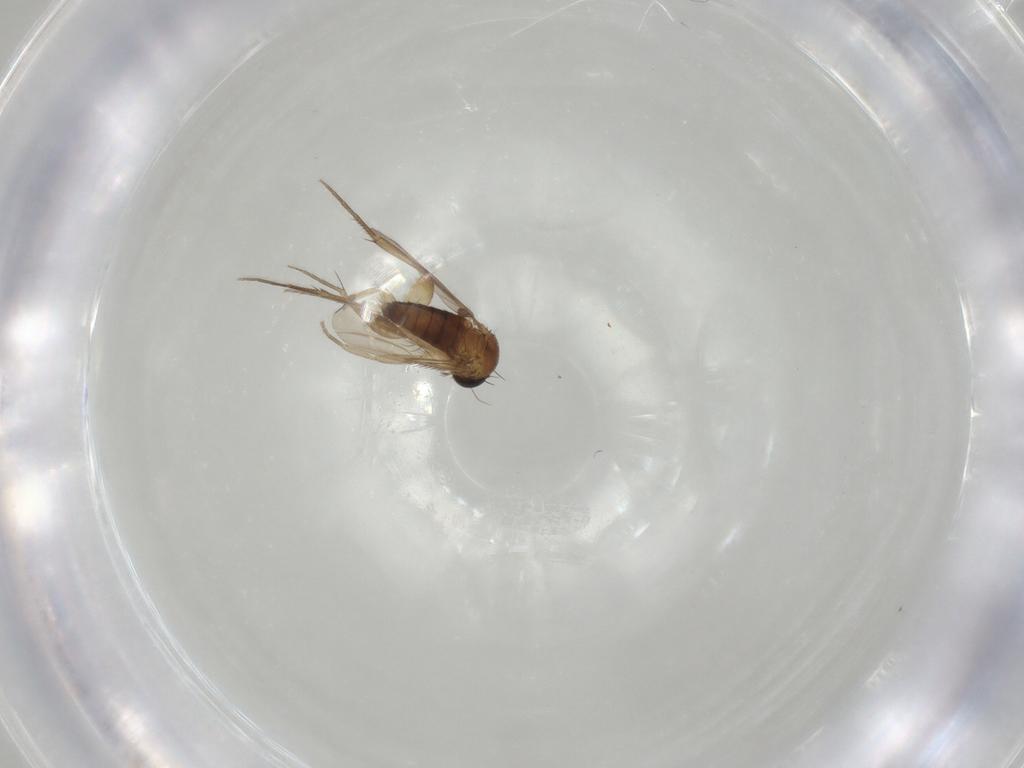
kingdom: Animalia
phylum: Arthropoda
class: Insecta
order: Diptera
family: Phoridae
